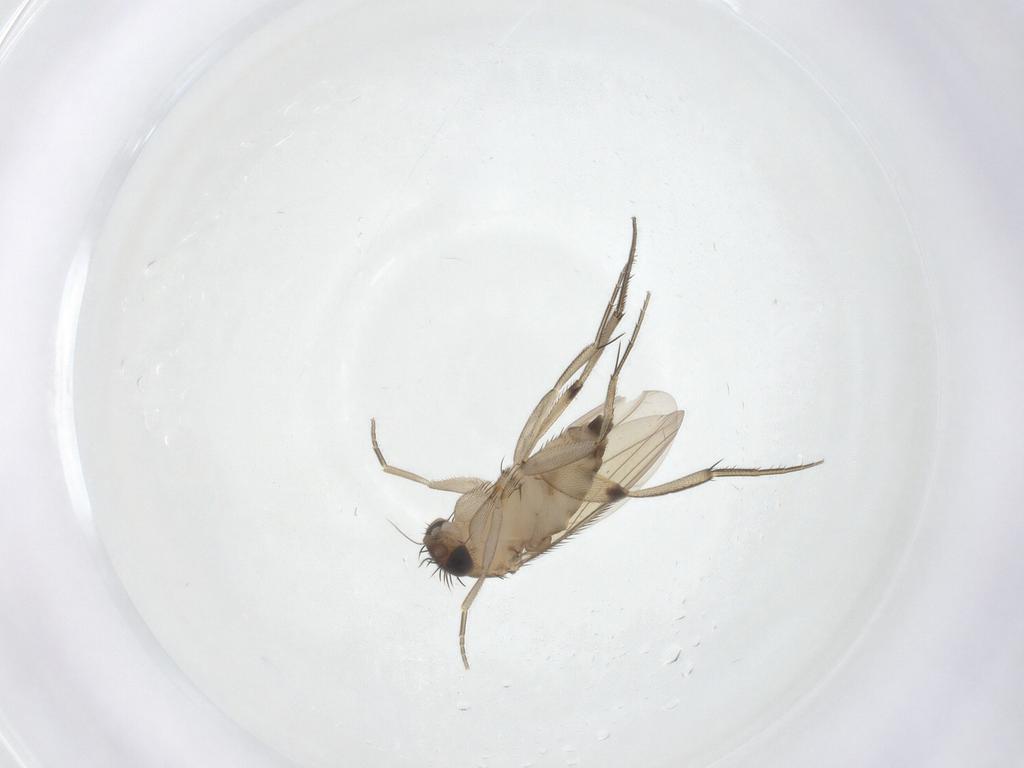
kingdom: Animalia
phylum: Arthropoda
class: Insecta
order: Diptera
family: Phoridae
